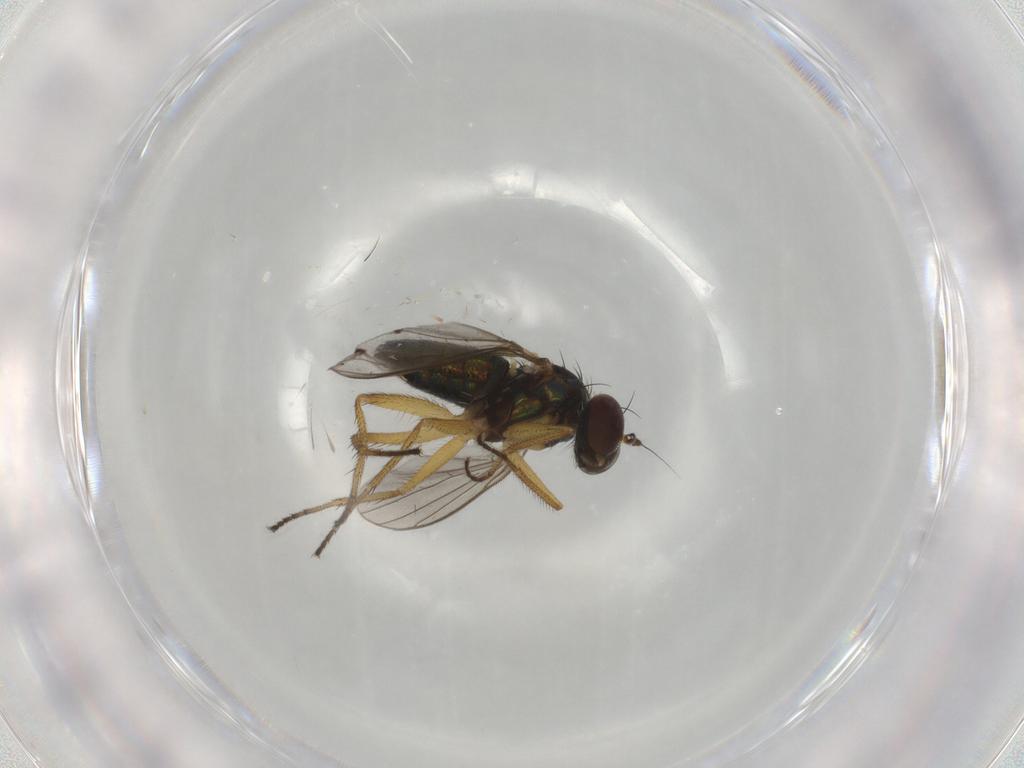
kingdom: Animalia
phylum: Arthropoda
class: Insecta
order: Diptera
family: Dolichopodidae
